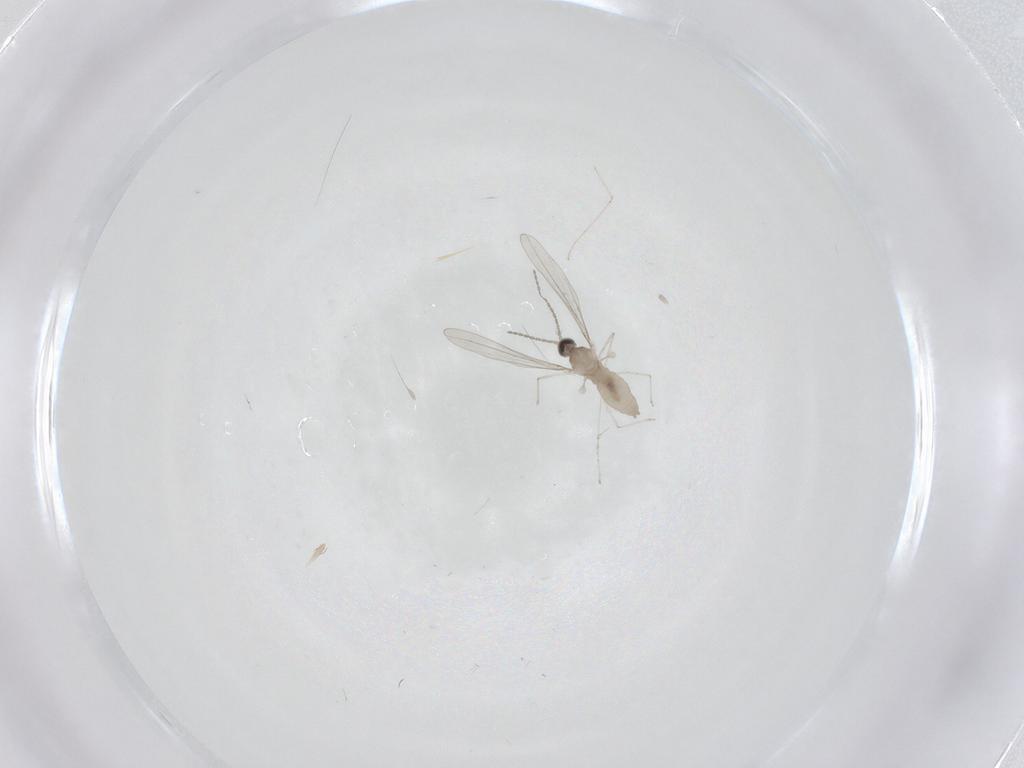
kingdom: Animalia
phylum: Arthropoda
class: Insecta
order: Diptera
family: Cecidomyiidae
